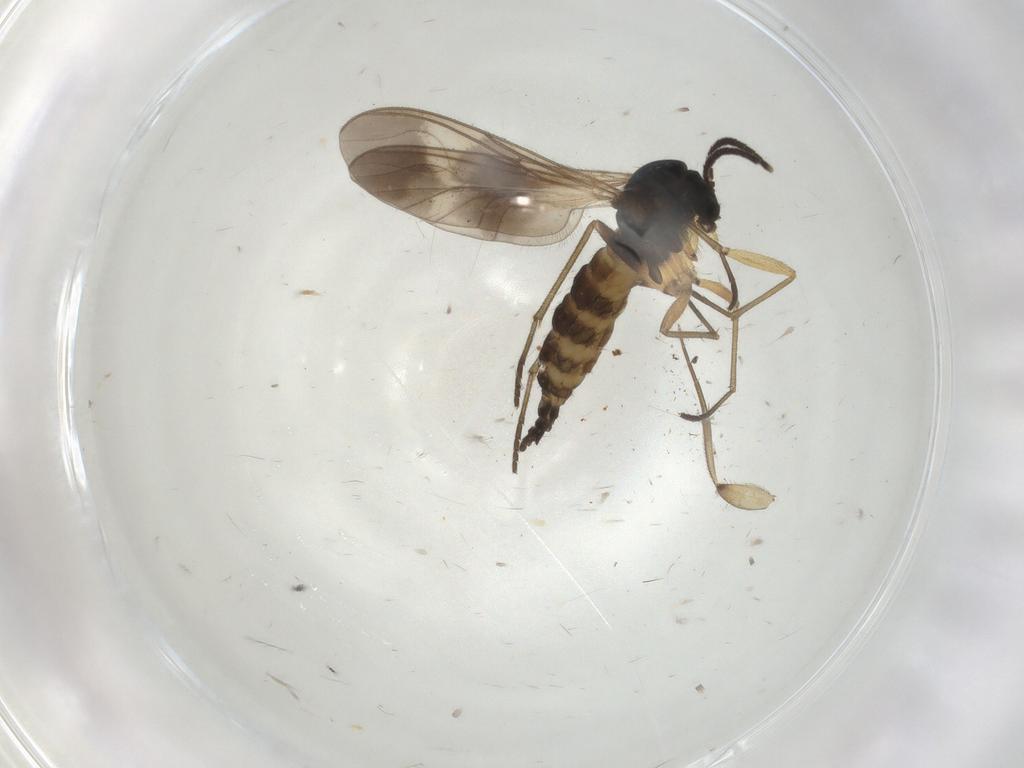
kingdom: Animalia
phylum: Arthropoda
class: Insecta
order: Diptera
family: Sciaridae
